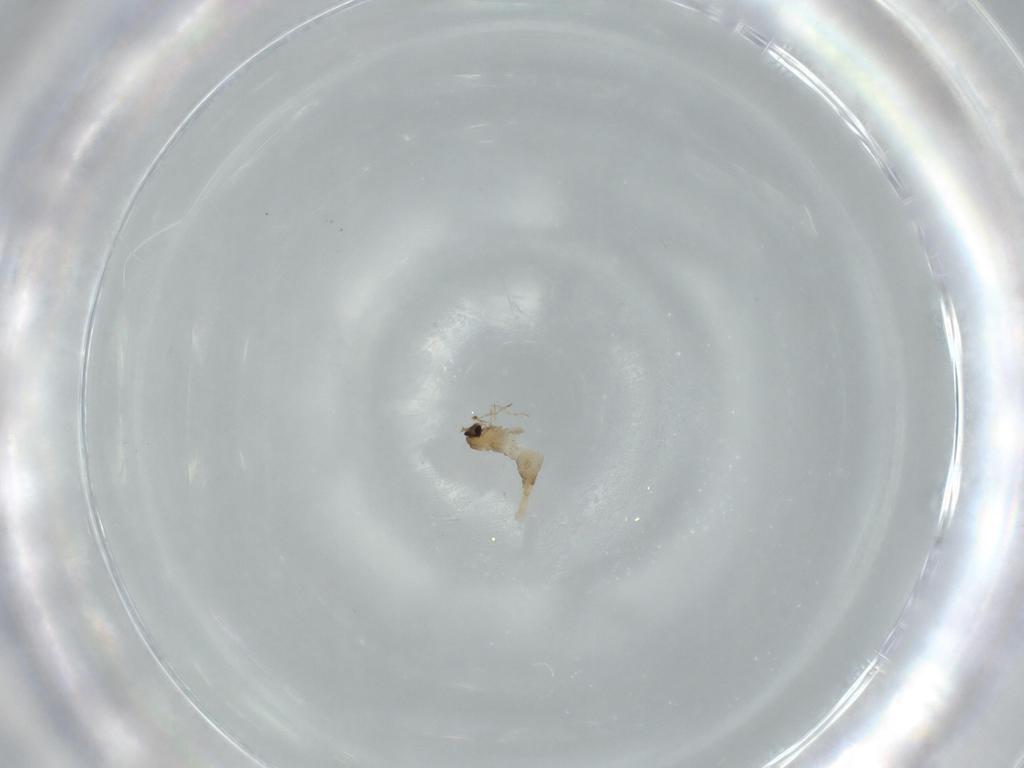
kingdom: Animalia
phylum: Arthropoda
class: Insecta
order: Diptera
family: Cecidomyiidae
